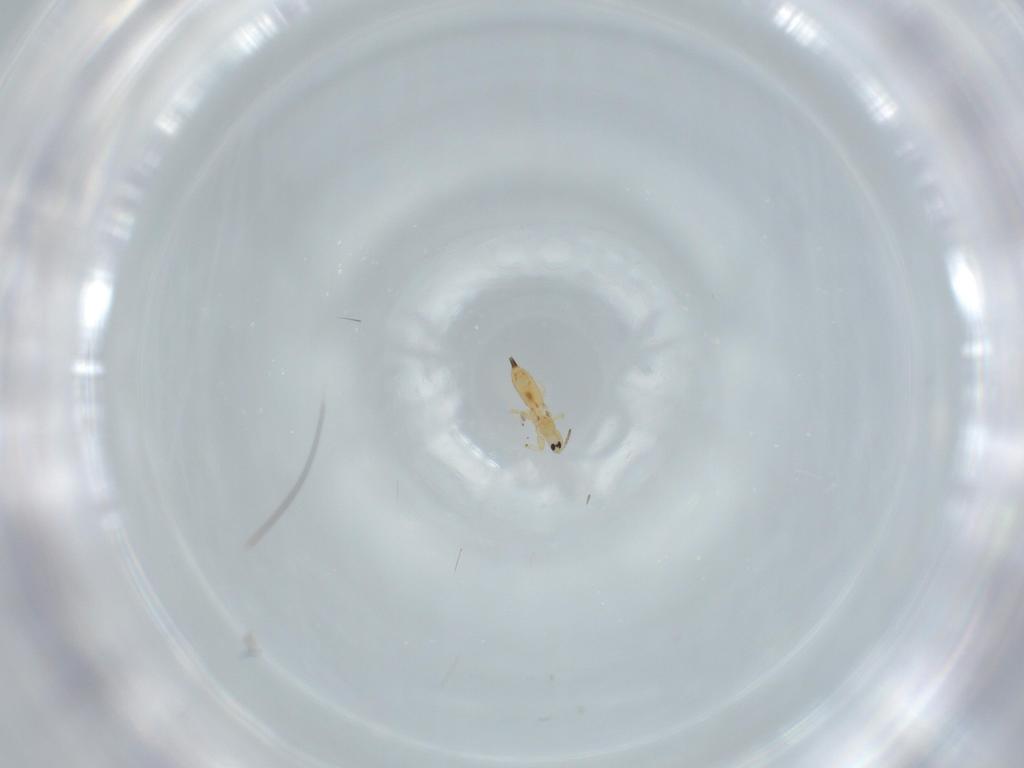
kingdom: Animalia
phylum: Arthropoda
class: Insecta
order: Thysanoptera
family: Phlaeothripidae
